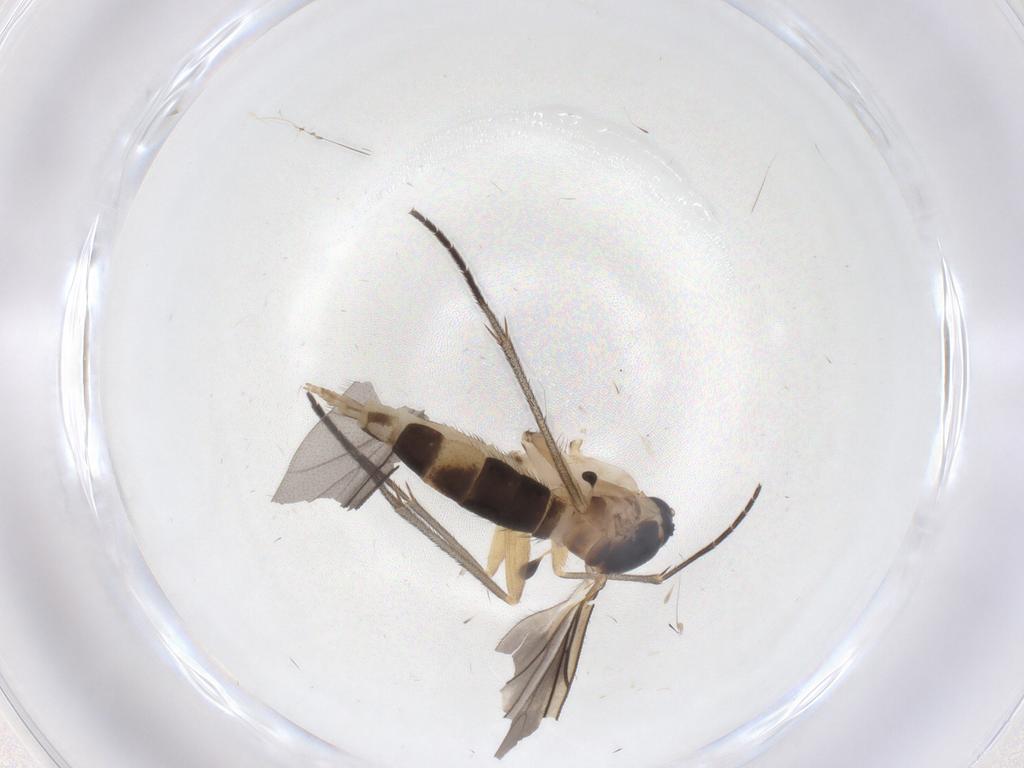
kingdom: Animalia
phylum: Arthropoda
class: Insecta
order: Diptera
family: Sciaridae
